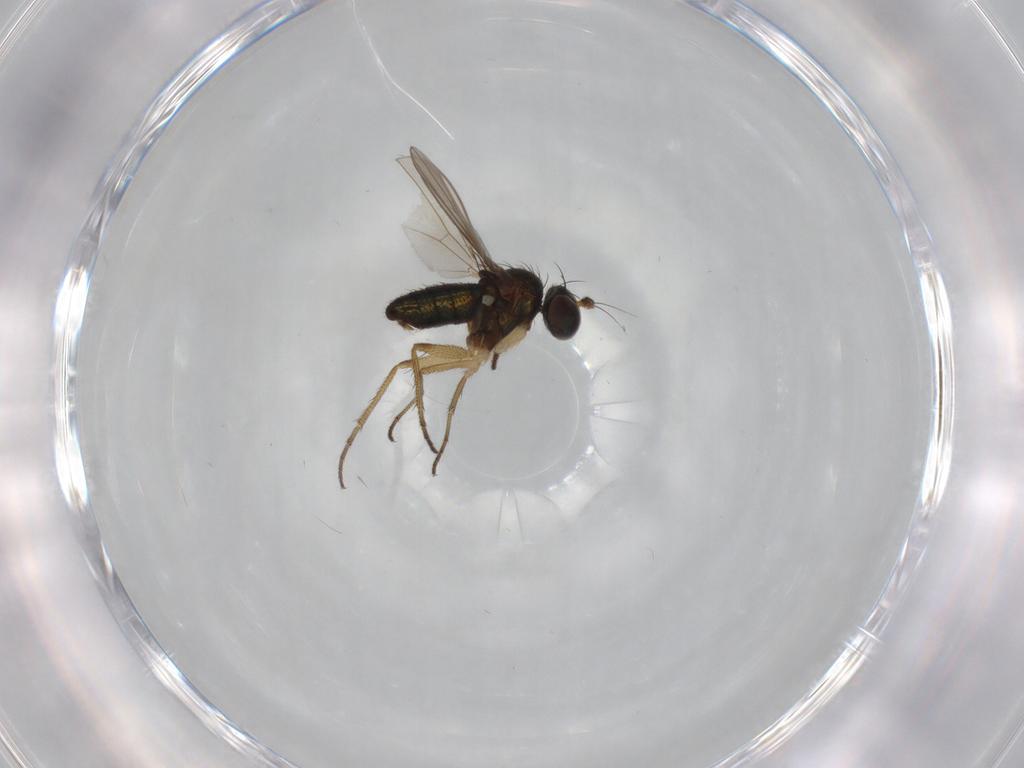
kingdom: Animalia
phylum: Arthropoda
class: Insecta
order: Diptera
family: Dolichopodidae
